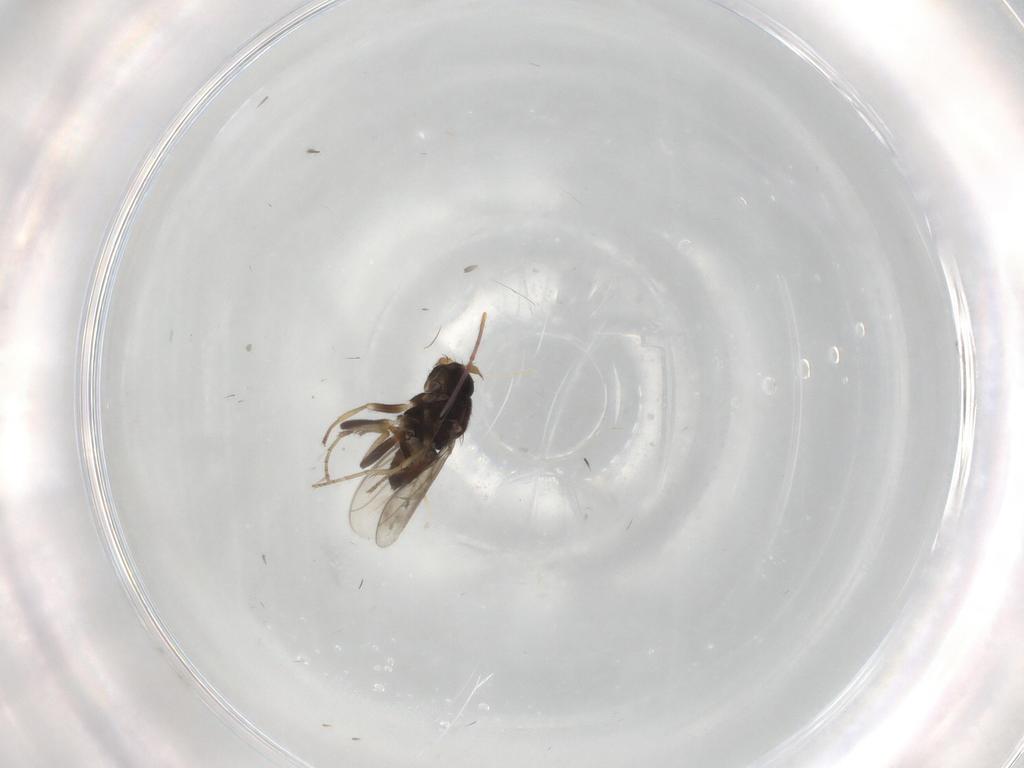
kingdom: Animalia
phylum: Arthropoda
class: Insecta
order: Diptera
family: Sphaeroceridae
